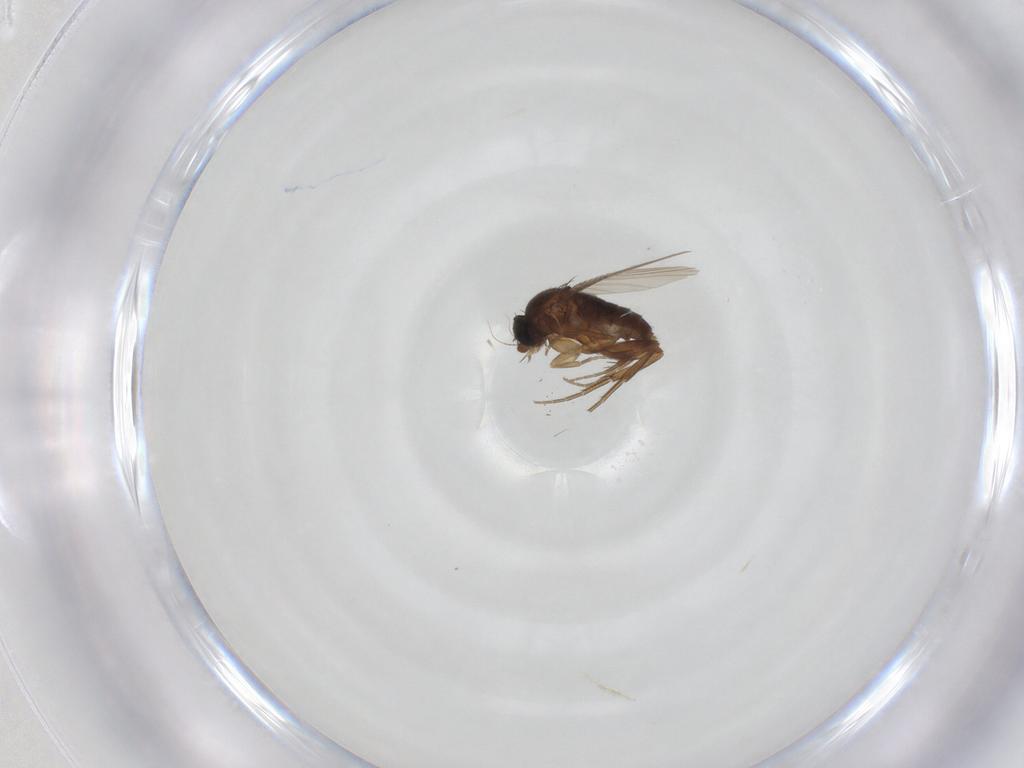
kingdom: Animalia
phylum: Arthropoda
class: Insecta
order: Diptera
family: Phoridae
